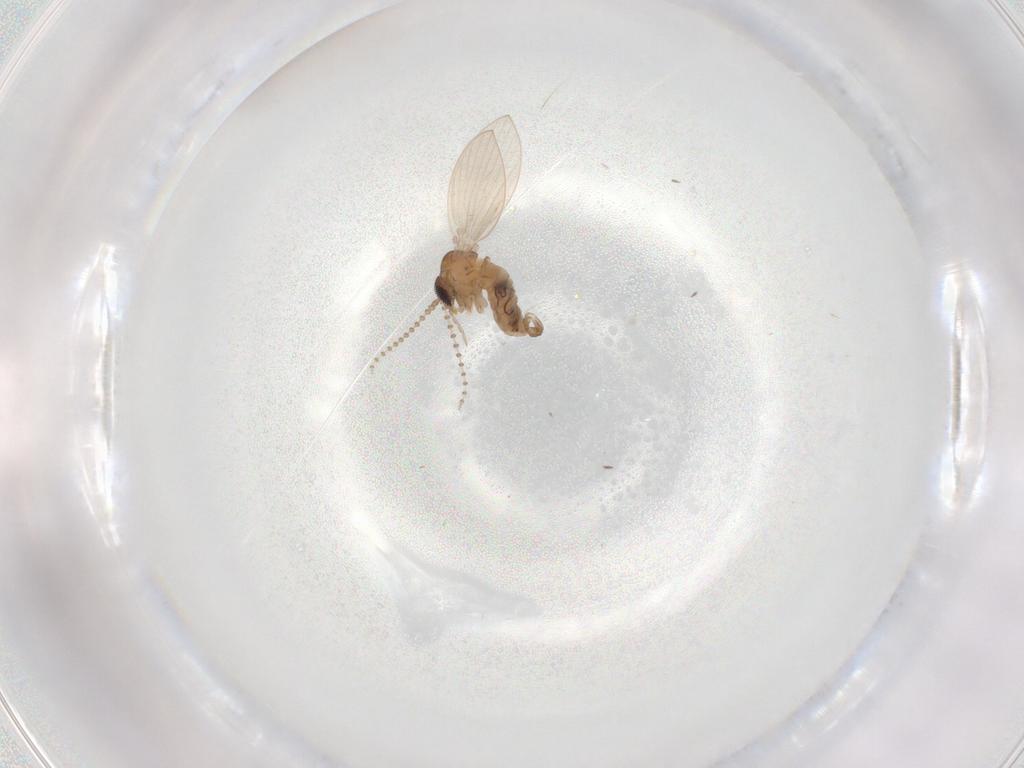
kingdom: Animalia
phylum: Arthropoda
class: Insecta
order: Diptera
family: Psychodidae
